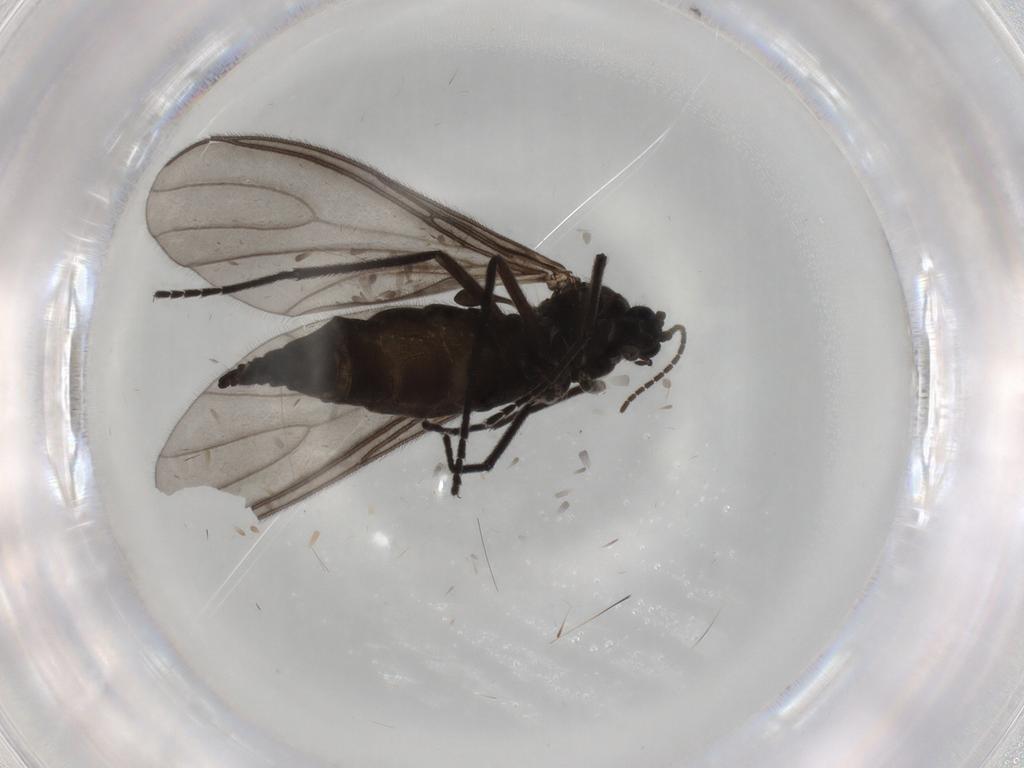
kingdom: Animalia
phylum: Arthropoda
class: Insecta
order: Diptera
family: Sciaridae
